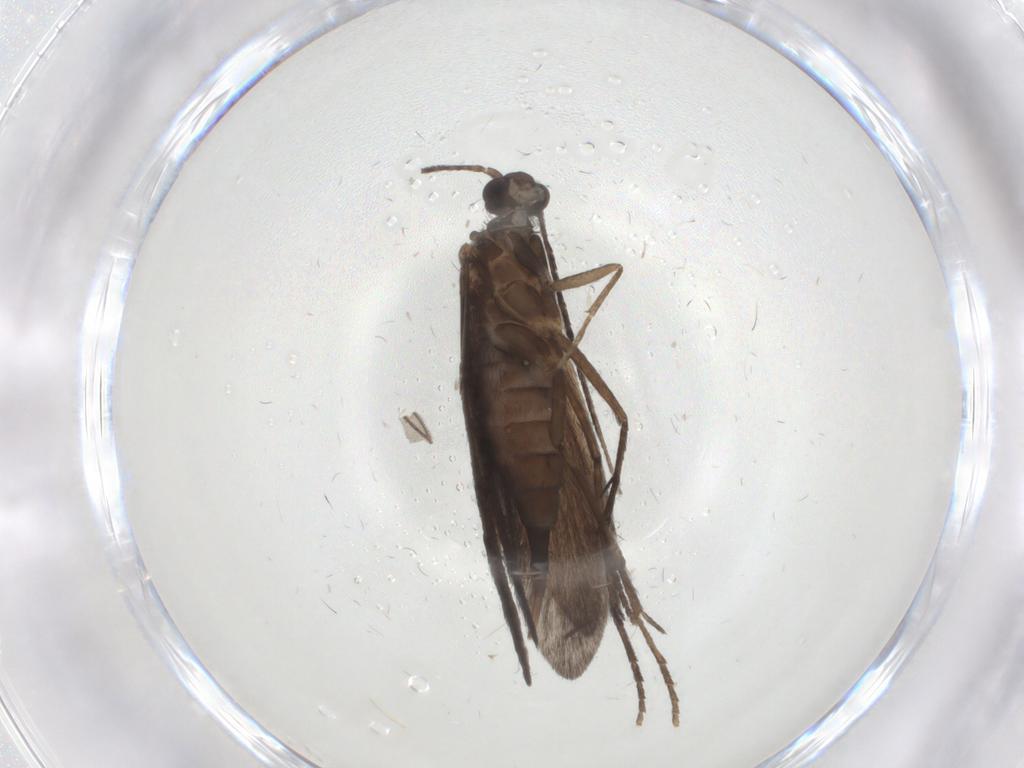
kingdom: Animalia
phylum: Arthropoda
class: Insecta
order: Trichoptera
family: Xiphocentronidae
